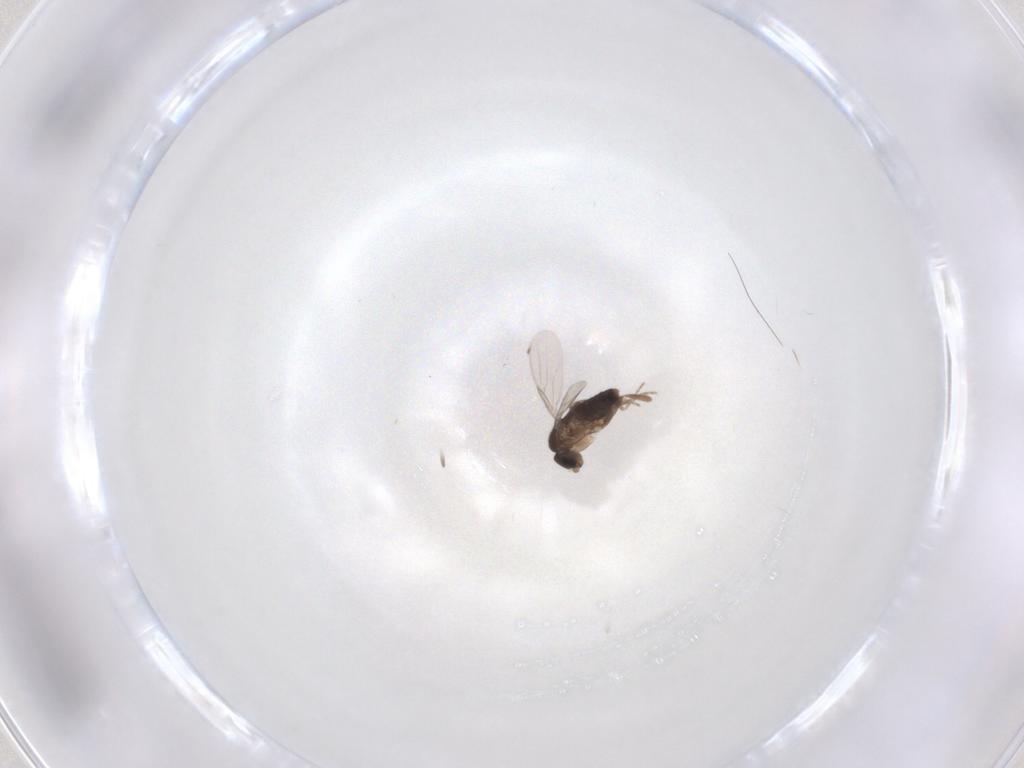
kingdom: Animalia
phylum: Arthropoda
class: Insecta
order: Diptera
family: Phoridae
